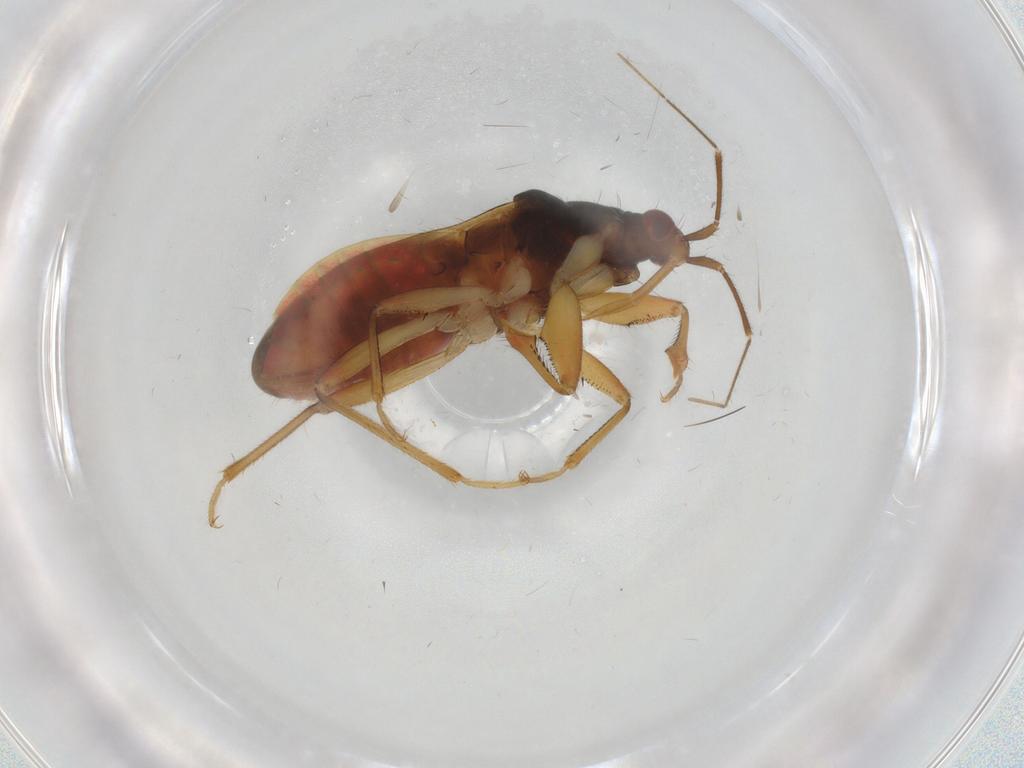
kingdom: Animalia
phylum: Arthropoda
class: Insecta
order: Hemiptera
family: Nabidae
